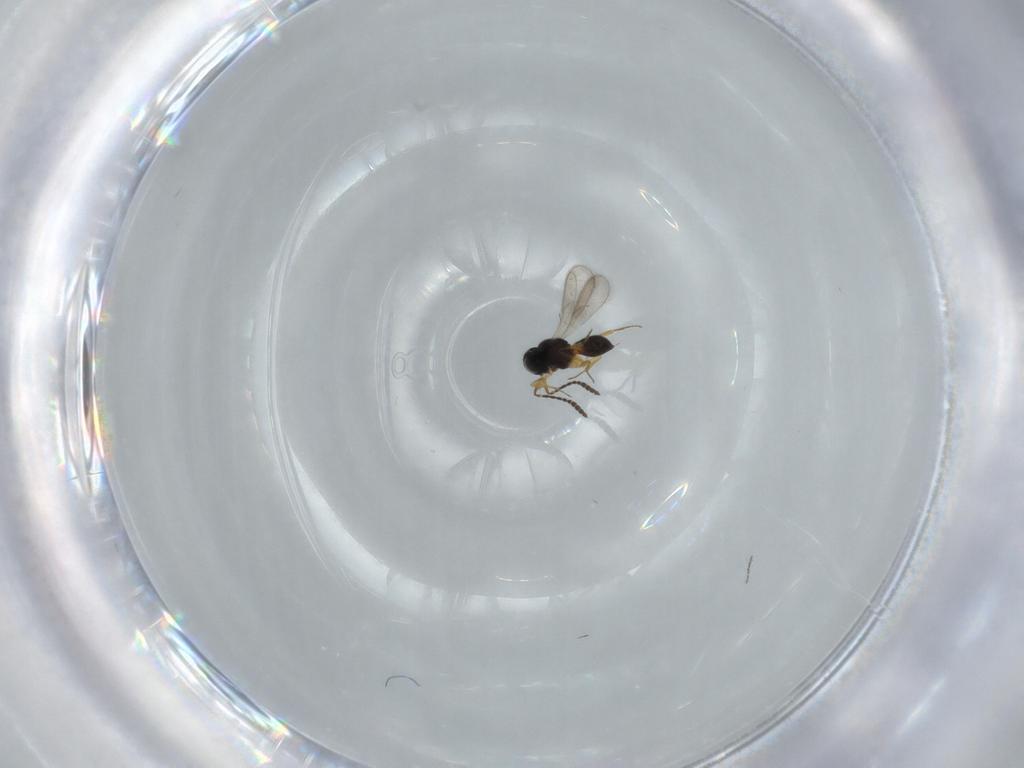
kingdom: Animalia
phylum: Arthropoda
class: Insecta
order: Hymenoptera
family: Scelionidae
